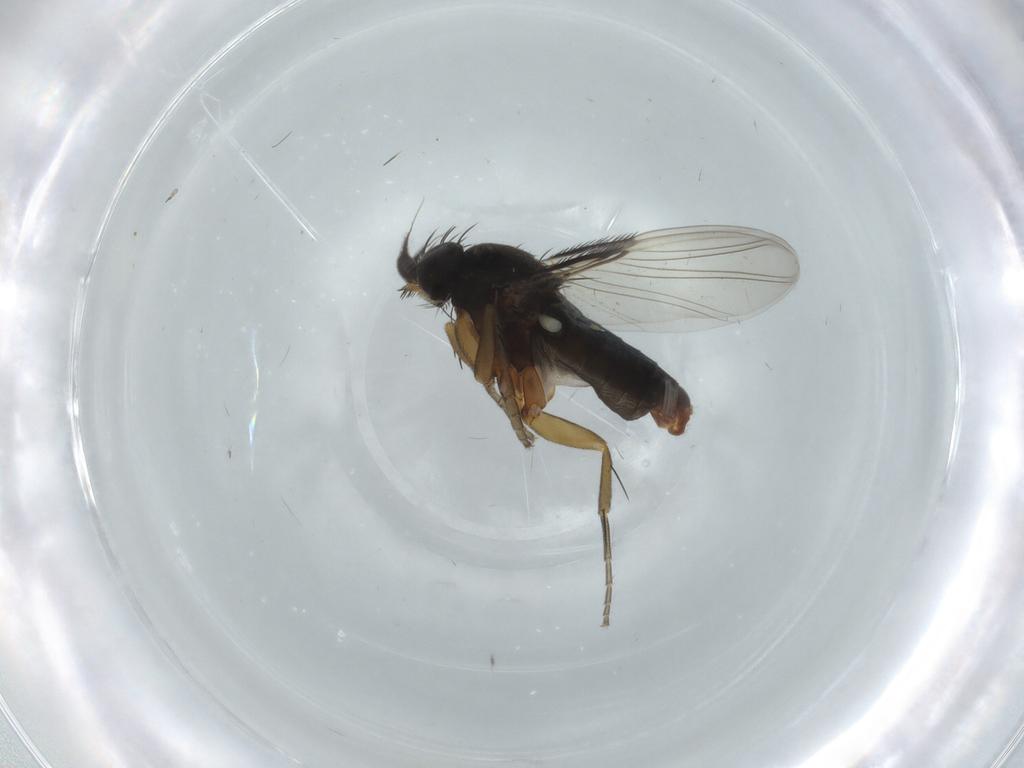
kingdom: Animalia
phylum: Arthropoda
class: Insecta
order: Diptera
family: Phoridae
